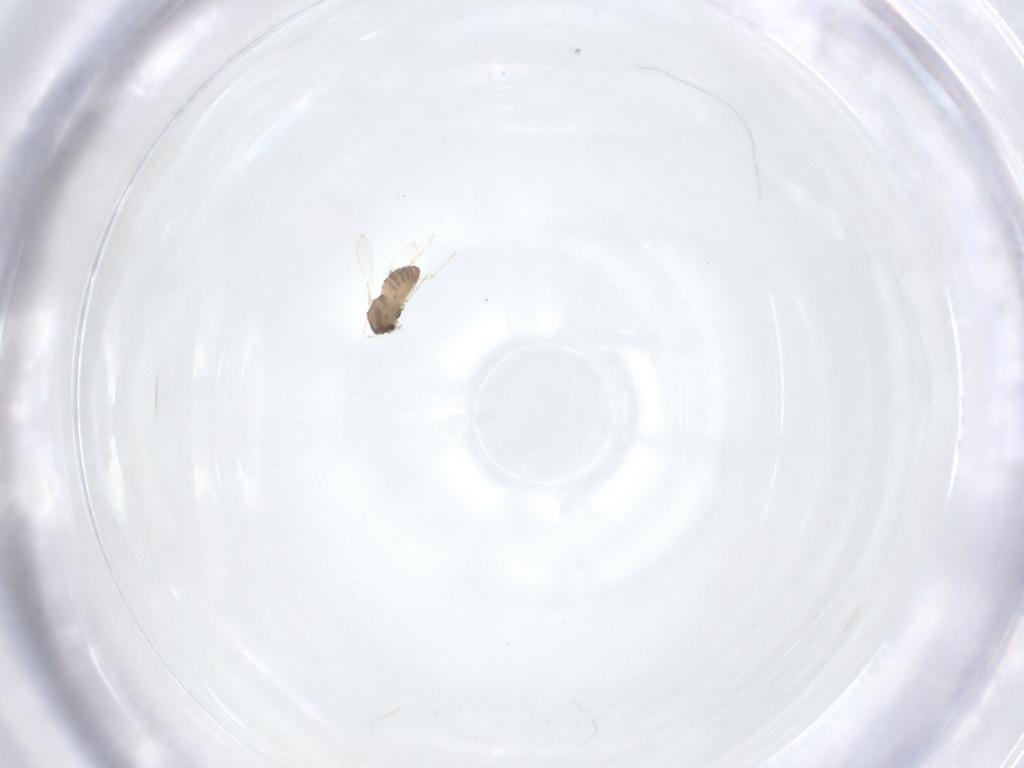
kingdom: Animalia
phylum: Arthropoda
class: Insecta
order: Diptera
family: Chironomidae
